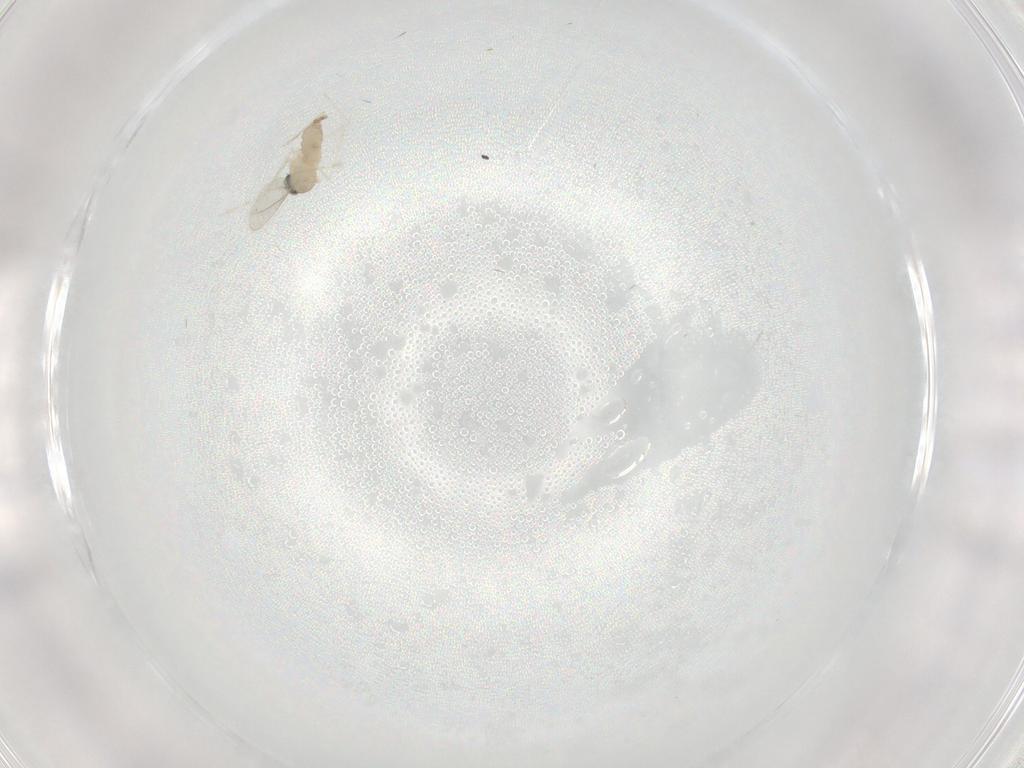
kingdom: Animalia
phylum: Arthropoda
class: Insecta
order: Diptera
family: Cecidomyiidae
